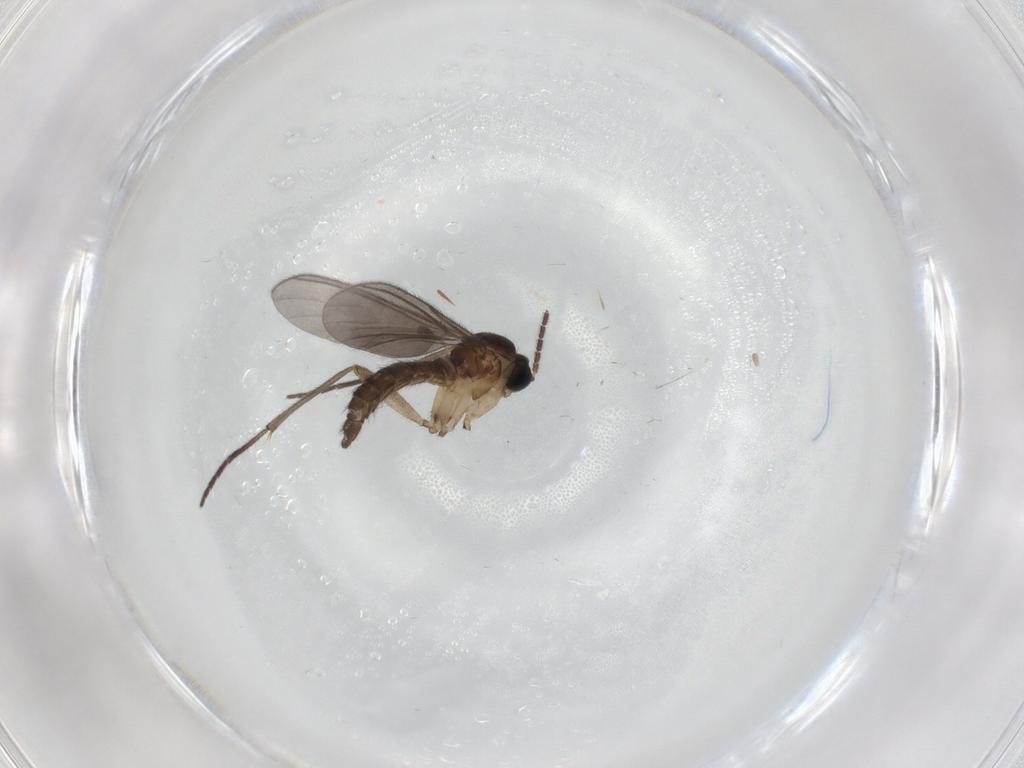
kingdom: Animalia
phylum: Arthropoda
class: Insecta
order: Diptera
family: Sciaridae
